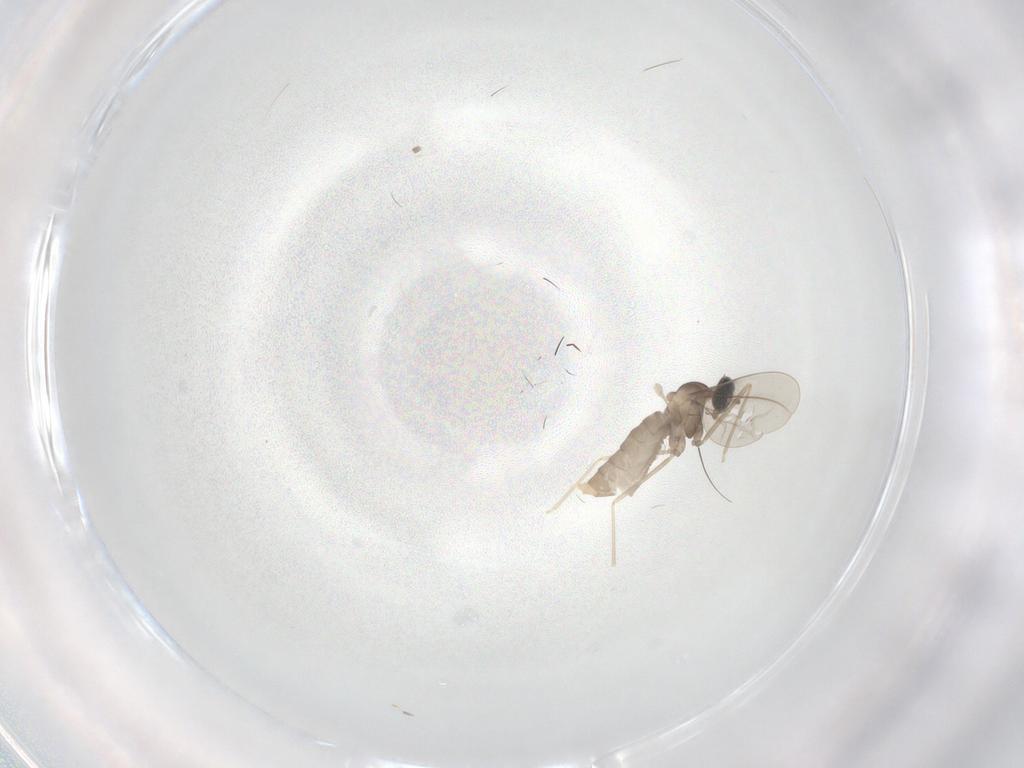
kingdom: Animalia
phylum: Arthropoda
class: Insecta
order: Diptera
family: Cecidomyiidae
